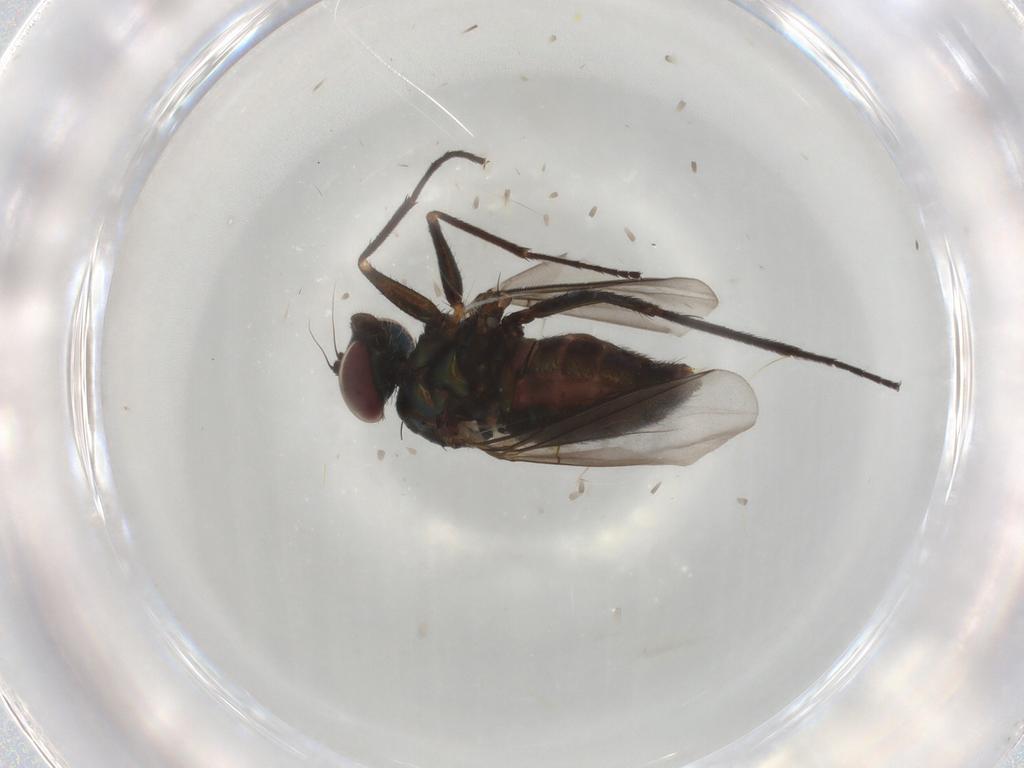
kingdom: Animalia
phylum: Arthropoda
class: Insecta
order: Diptera
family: Dolichopodidae
